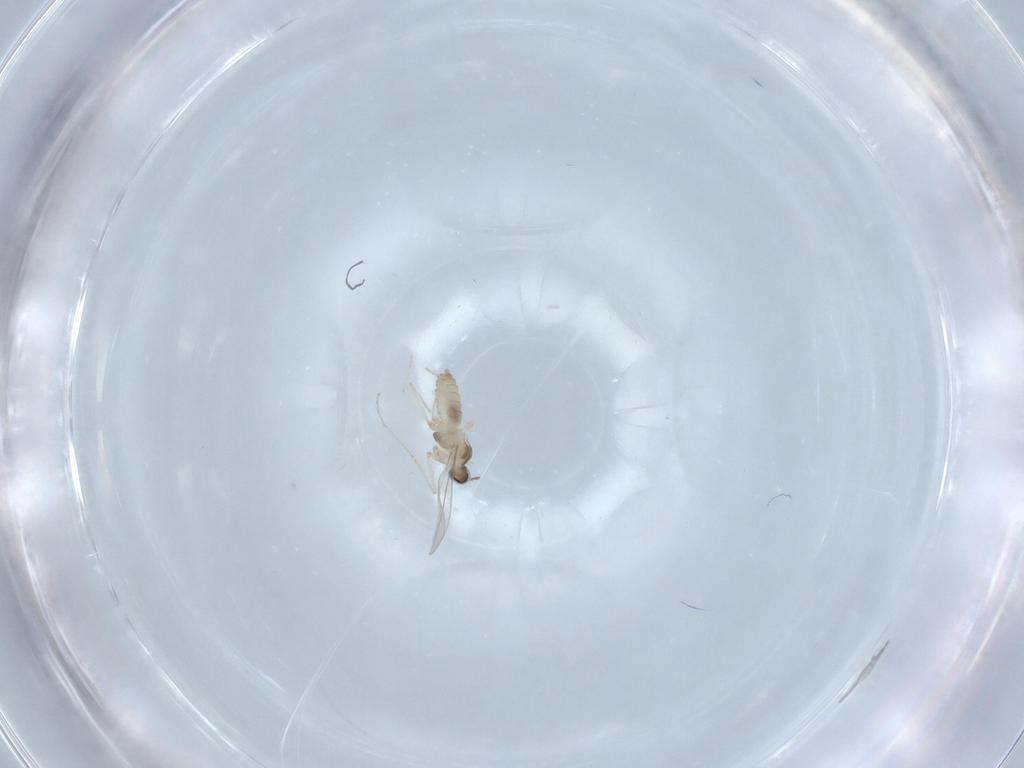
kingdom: Animalia
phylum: Arthropoda
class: Insecta
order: Diptera
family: Cecidomyiidae
